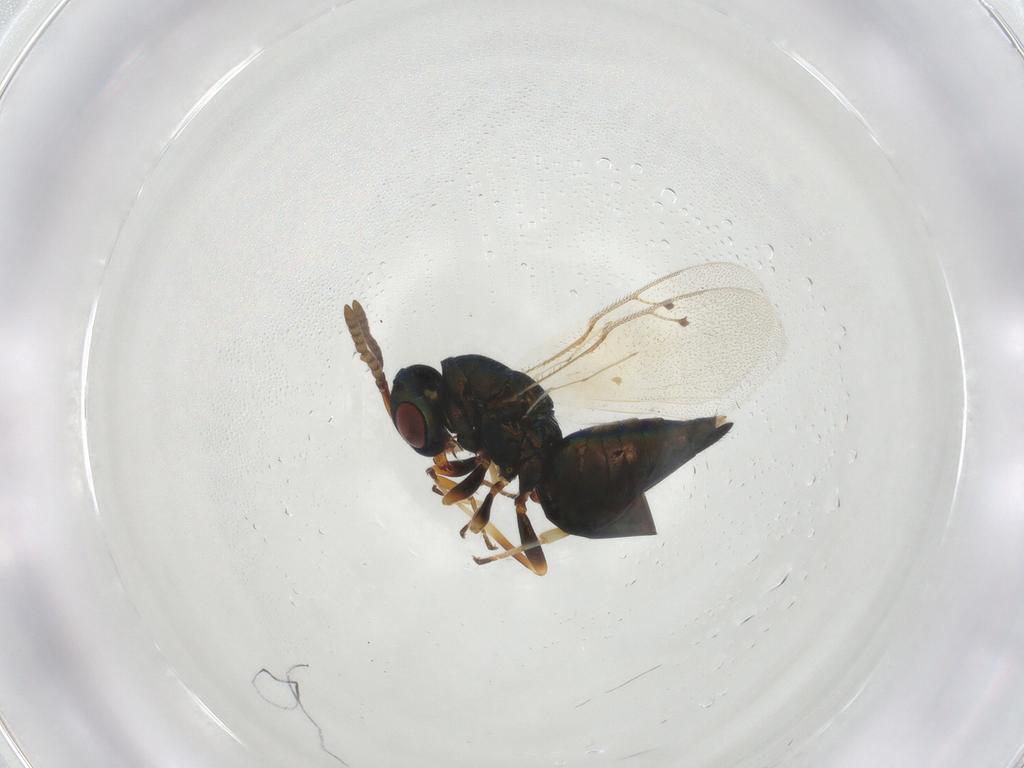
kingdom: Animalia
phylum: Arthropoda
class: Insecta
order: Hymenoptera
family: Pteromalidae
